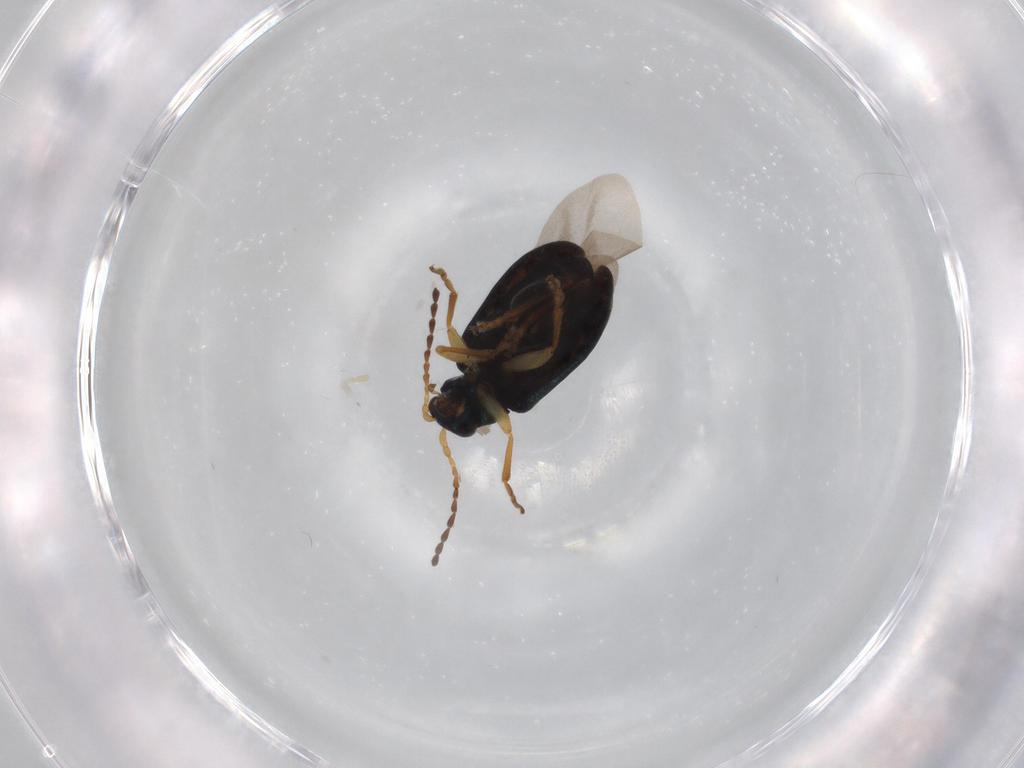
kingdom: Animalia
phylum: Arthropoda
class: Insecta
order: Coleoptera
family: Chrysomelidae
